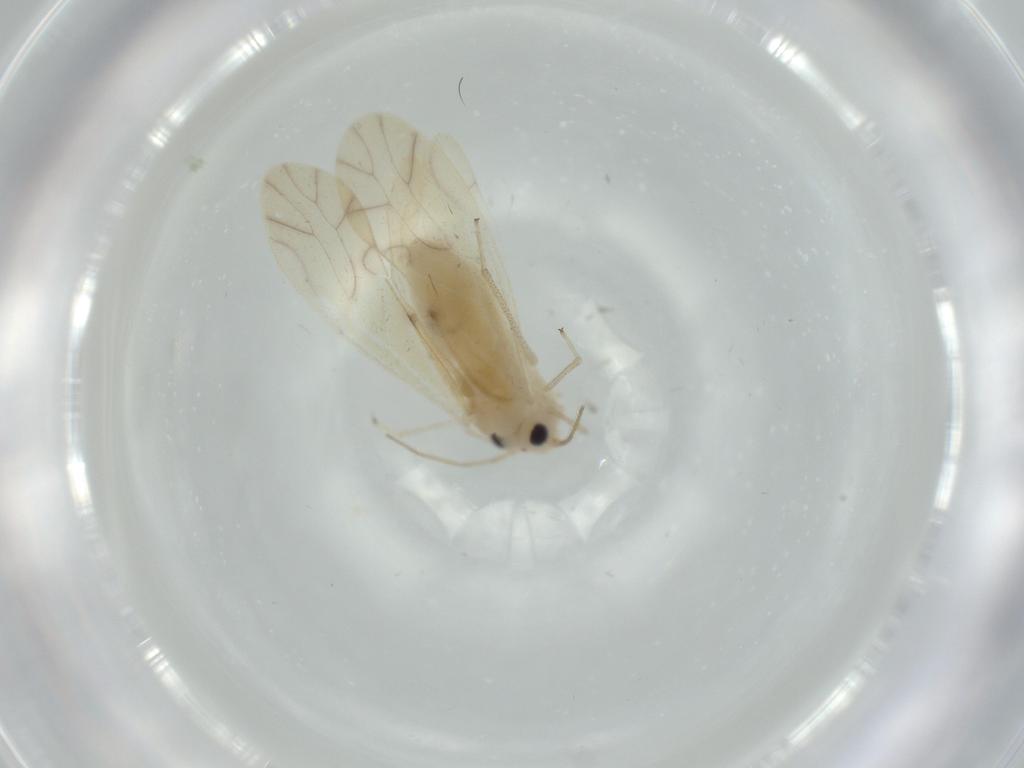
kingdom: Animalia
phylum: Arthropoda
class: Insecta
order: Psocodea
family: Caeciliusidae
